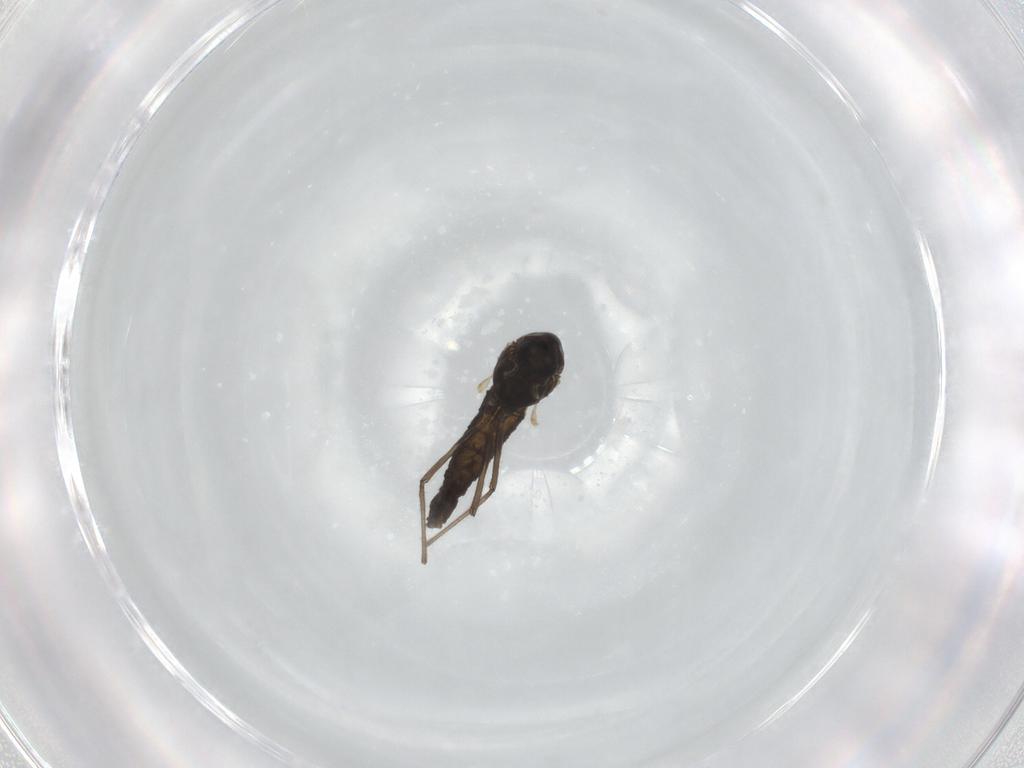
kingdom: Animalia
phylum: Arthropoda
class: Insecta
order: Diptera
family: Chironomidae
